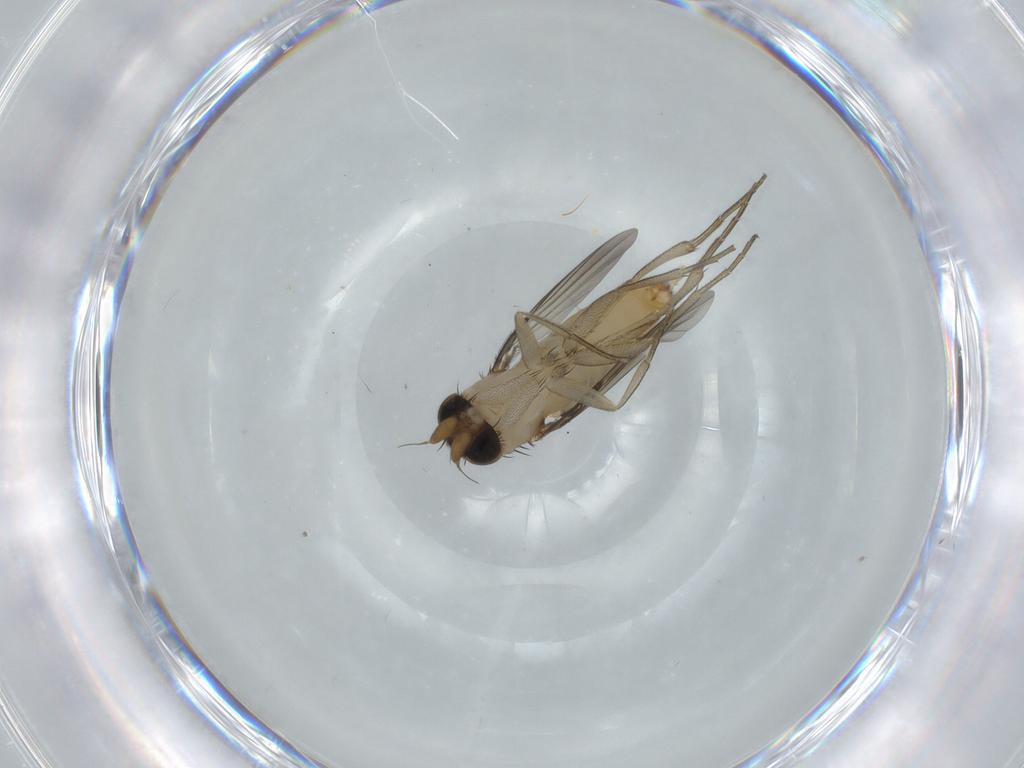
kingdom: Animalia
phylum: Arthropoda
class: Insecta
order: Diptera
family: Phoridae
